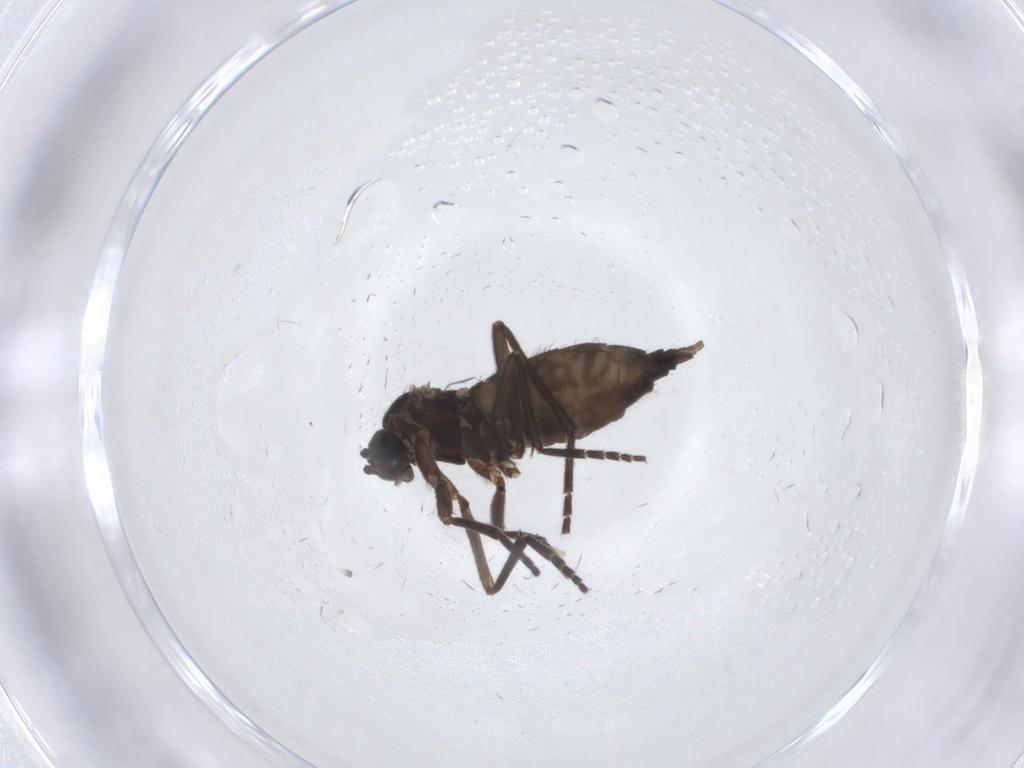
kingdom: Animalia
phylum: Arthropoda
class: Insecta
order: Diptera
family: Sciaridae
